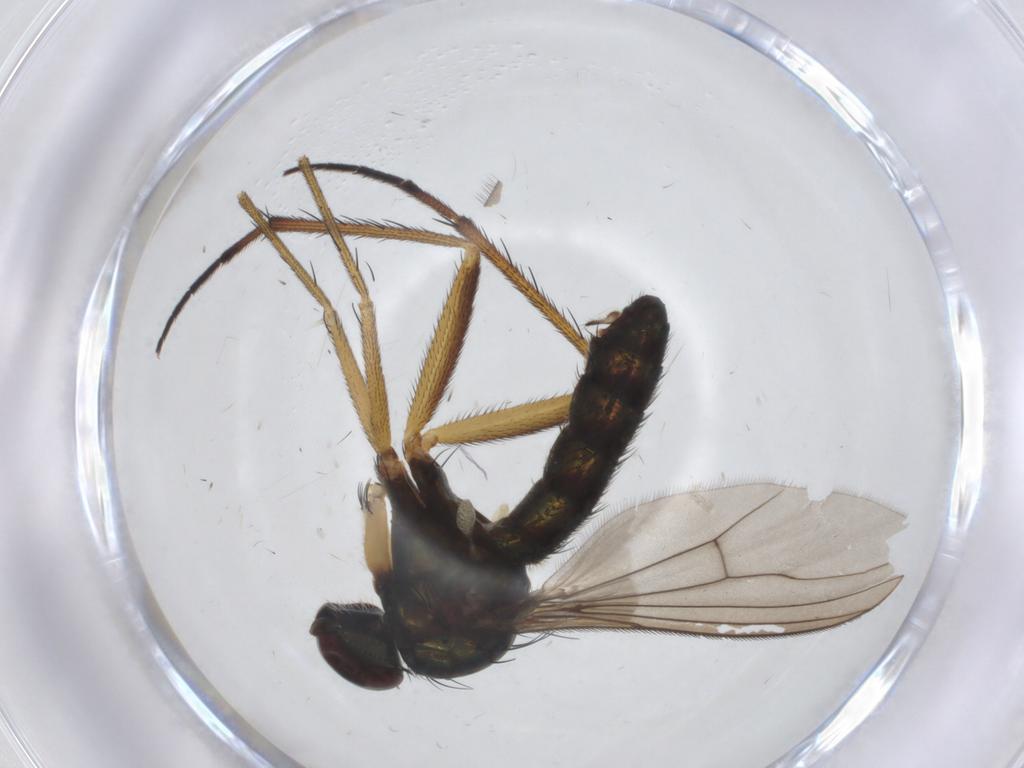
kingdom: Animalia
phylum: Arthropoda
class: Insecta
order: Diptera
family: Dolichopodidae
